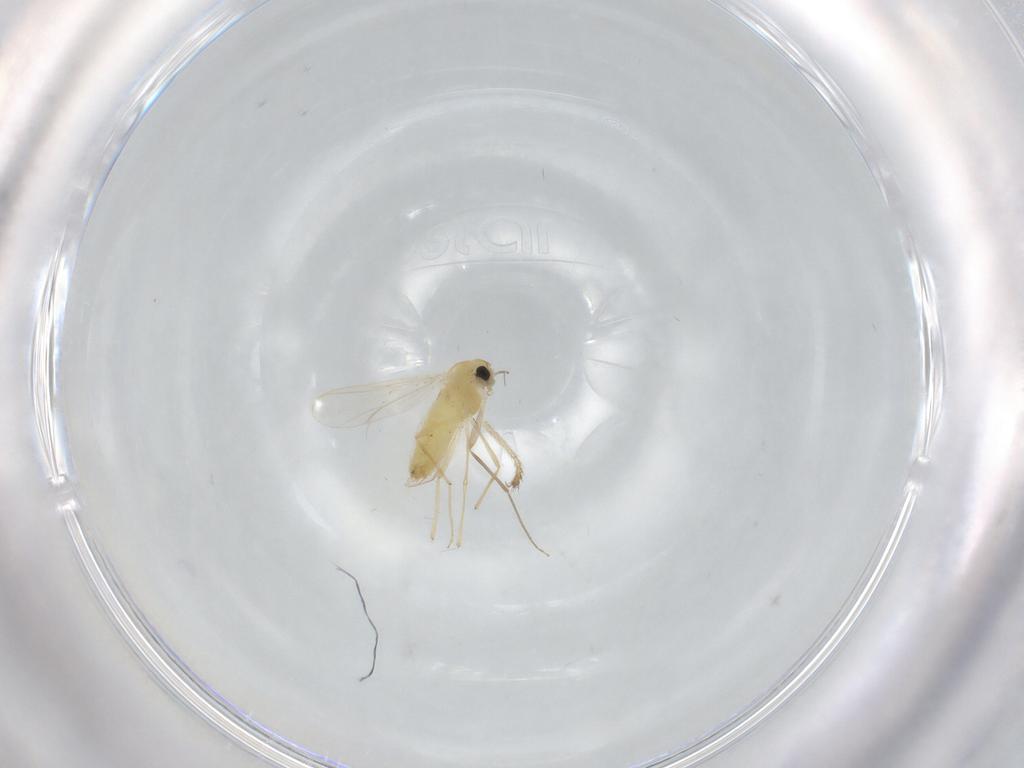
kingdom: Animalia
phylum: Arthropoda
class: Insecta
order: Diptera
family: Chironomidae
